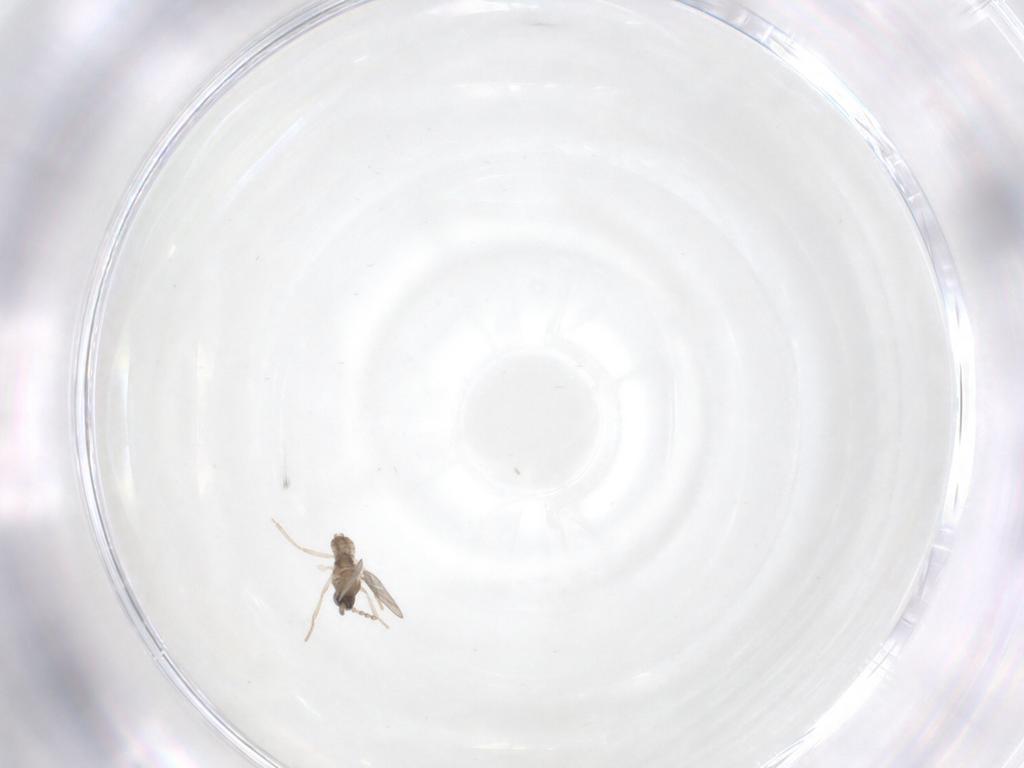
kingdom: Animalia
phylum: Arthropoda
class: Insecta
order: Diptera
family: Cecidomyiidae
